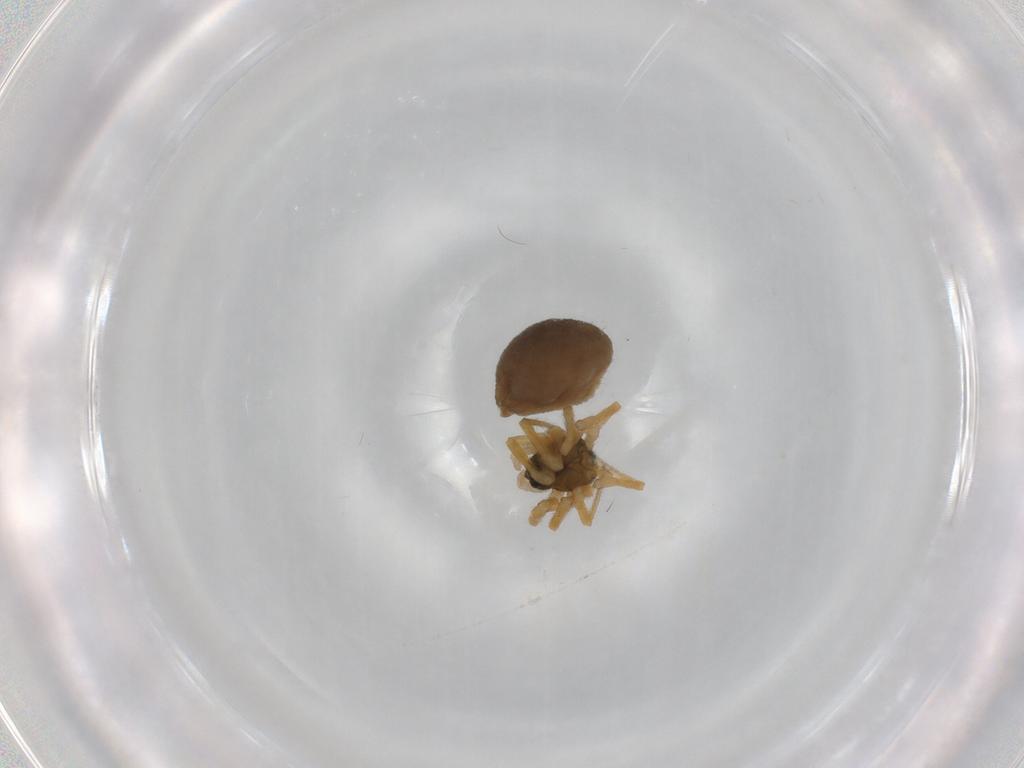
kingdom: Animalia
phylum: Arthropoda
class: Arachnida
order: Araneae
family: Linyphiidae
